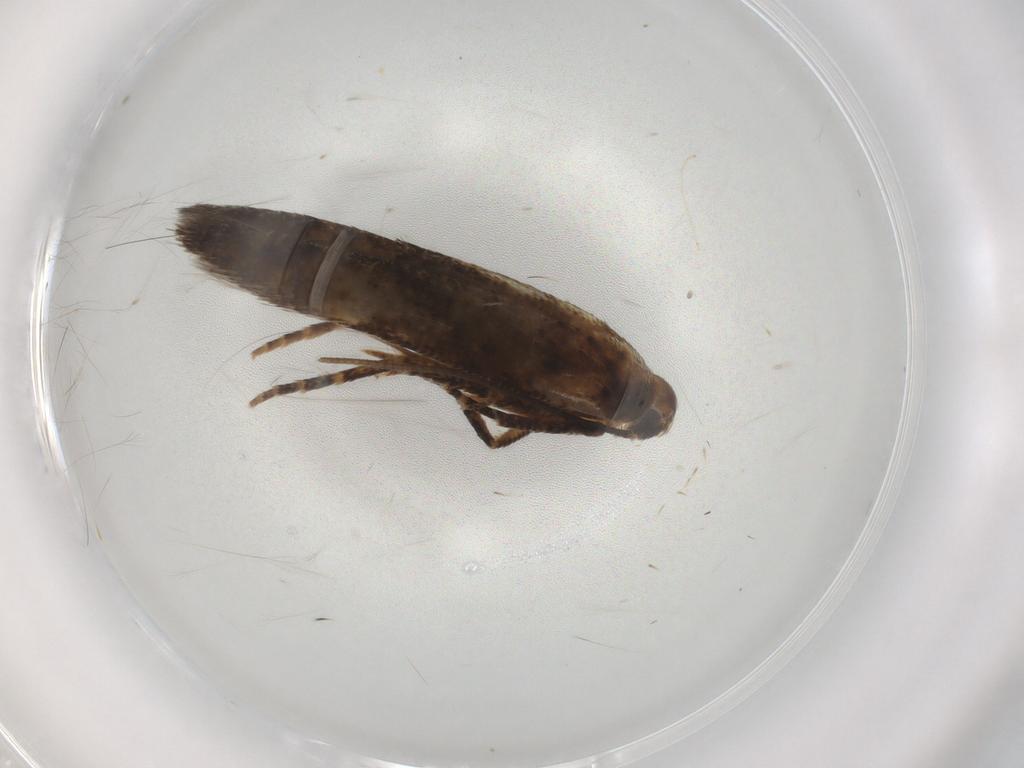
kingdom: Animalia
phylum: Arthropoda
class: Insecta
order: Lepidoptera
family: Cosmopterigidae
